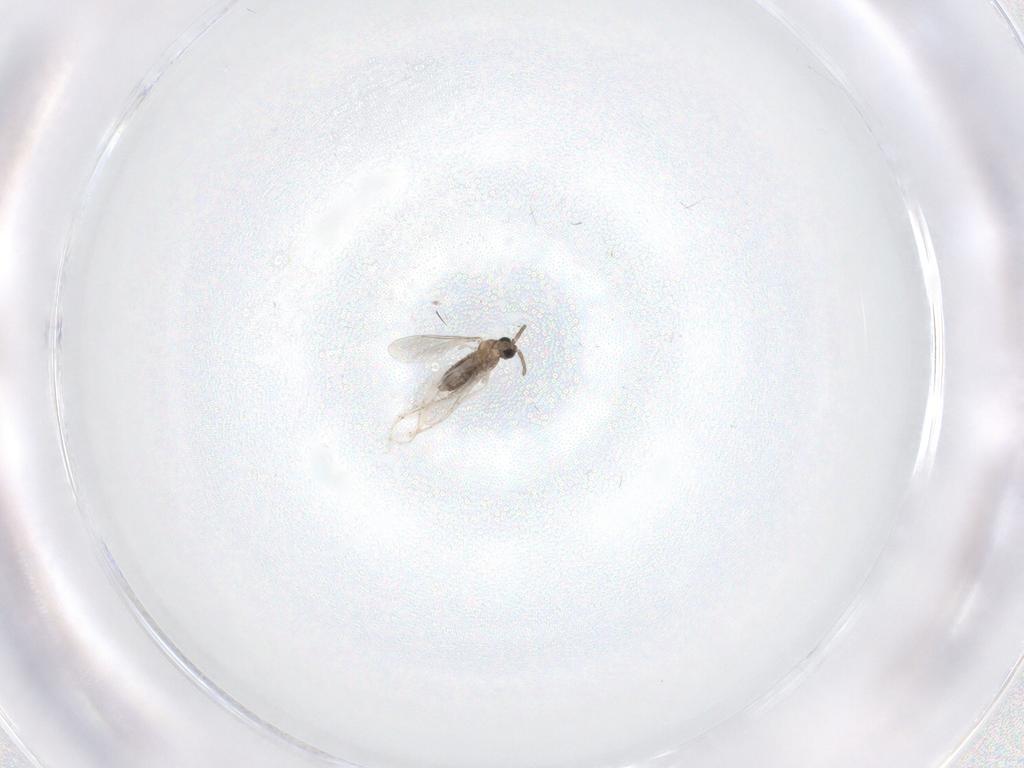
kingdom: Animalia
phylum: Arthropoda
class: Insecta
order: Diptera
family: Cecidomyiidae
